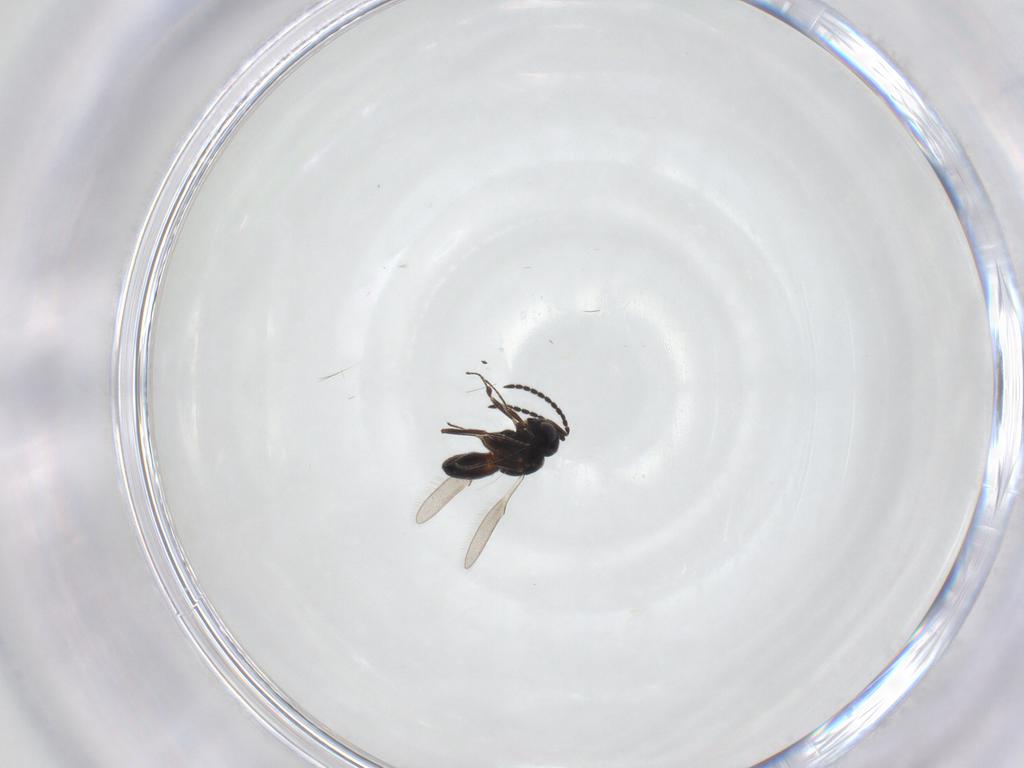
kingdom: Animalia
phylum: Arthropoda
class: Insecta
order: Hymenoptera
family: Scelionidae
